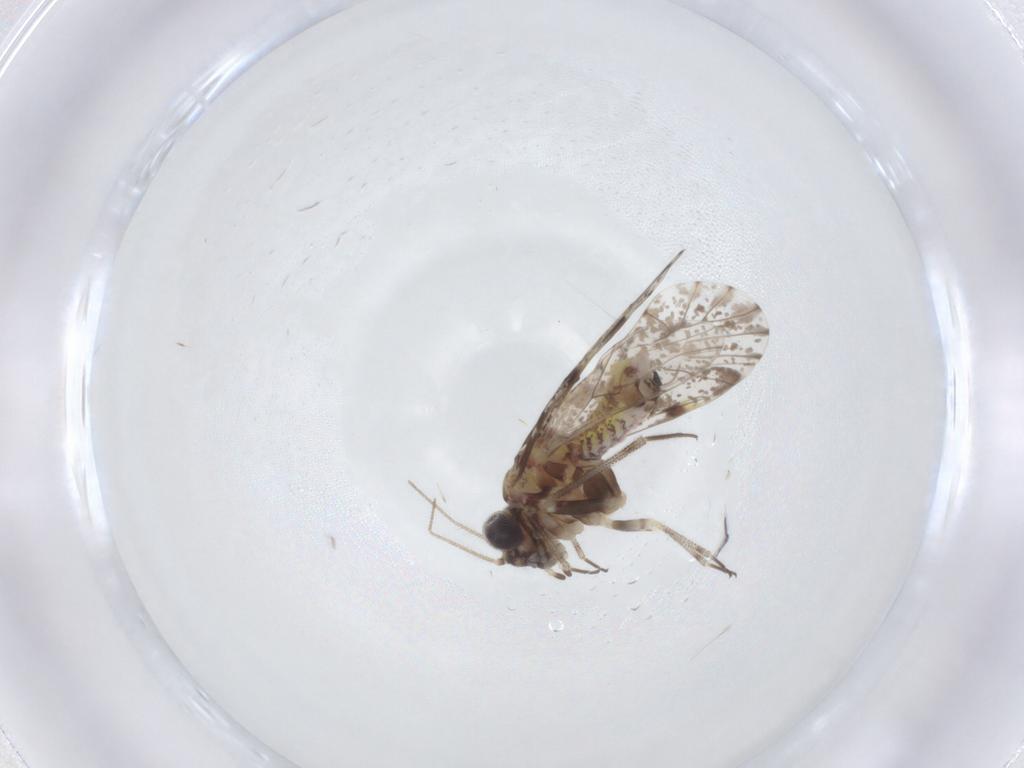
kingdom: Animalia
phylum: Arthropoda
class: Insecta
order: Psocodea
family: Psocidae
